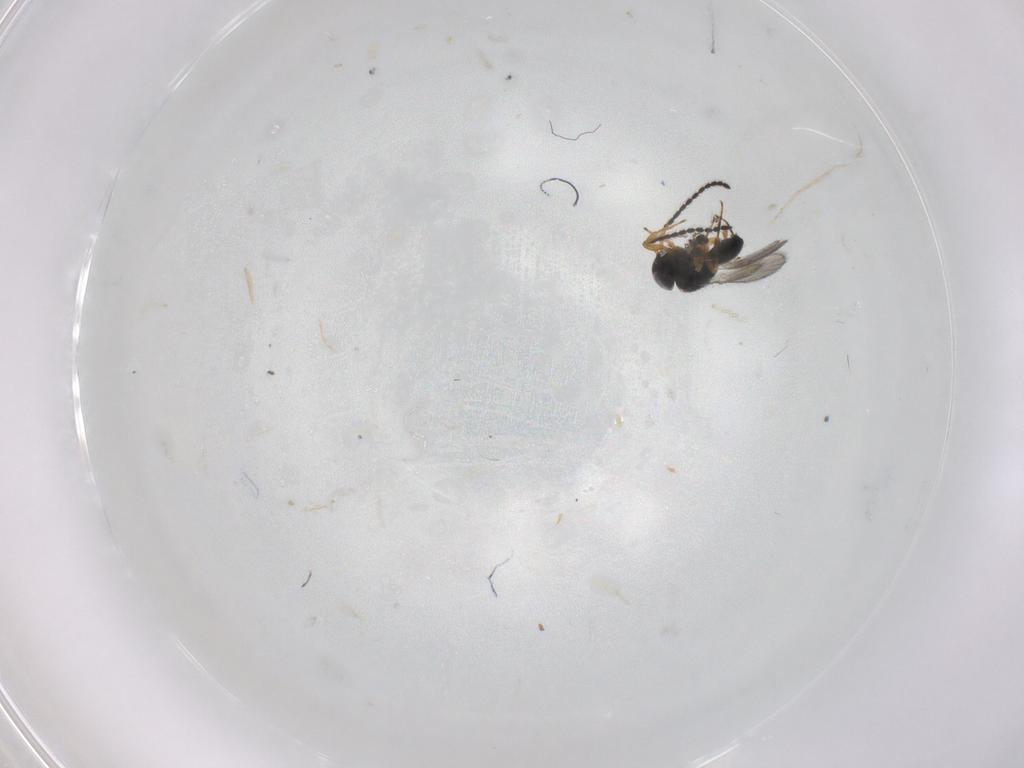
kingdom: Animalia
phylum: Arthropoda
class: Insecta
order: Hymenoptera
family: Scelionidae
